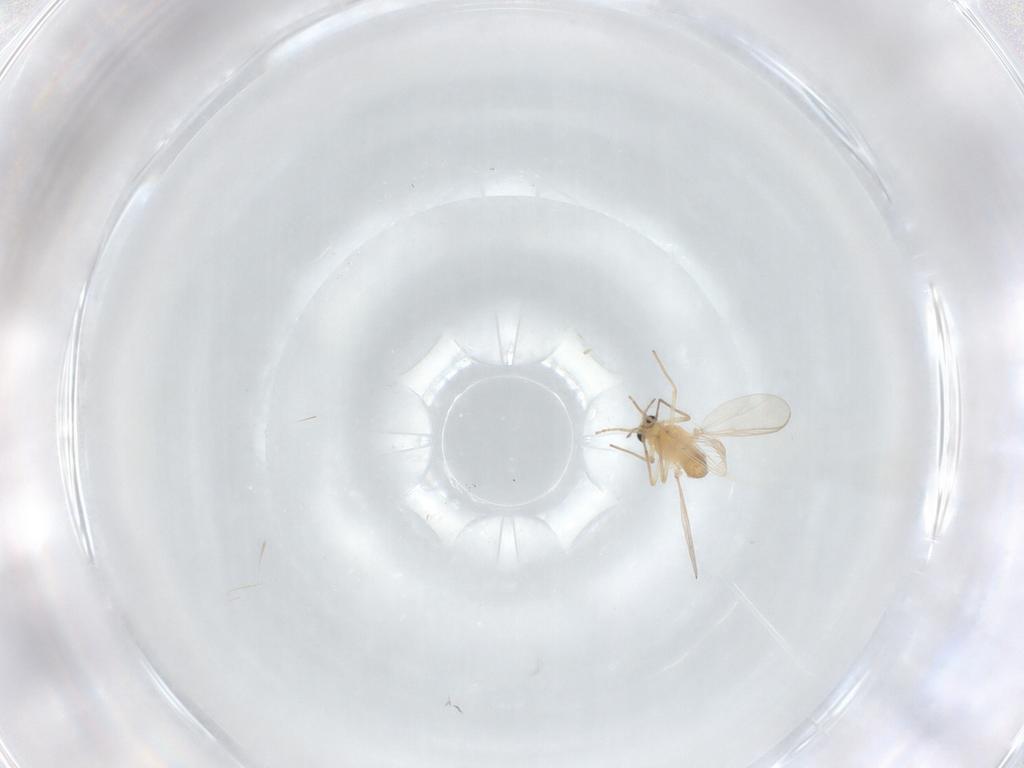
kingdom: Animalia
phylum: Arthropoda
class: Insecta
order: Diptera
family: Chironomidae
